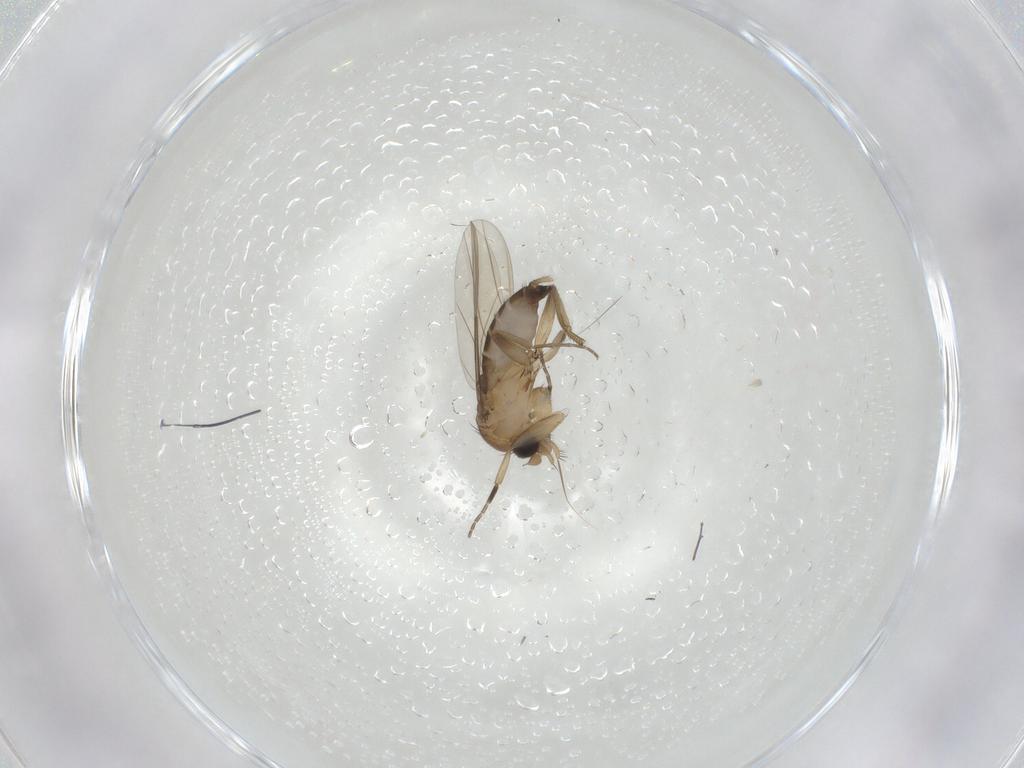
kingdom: Animalia
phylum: Arthropoda
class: Insecta
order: Diptera
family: Phoridae
